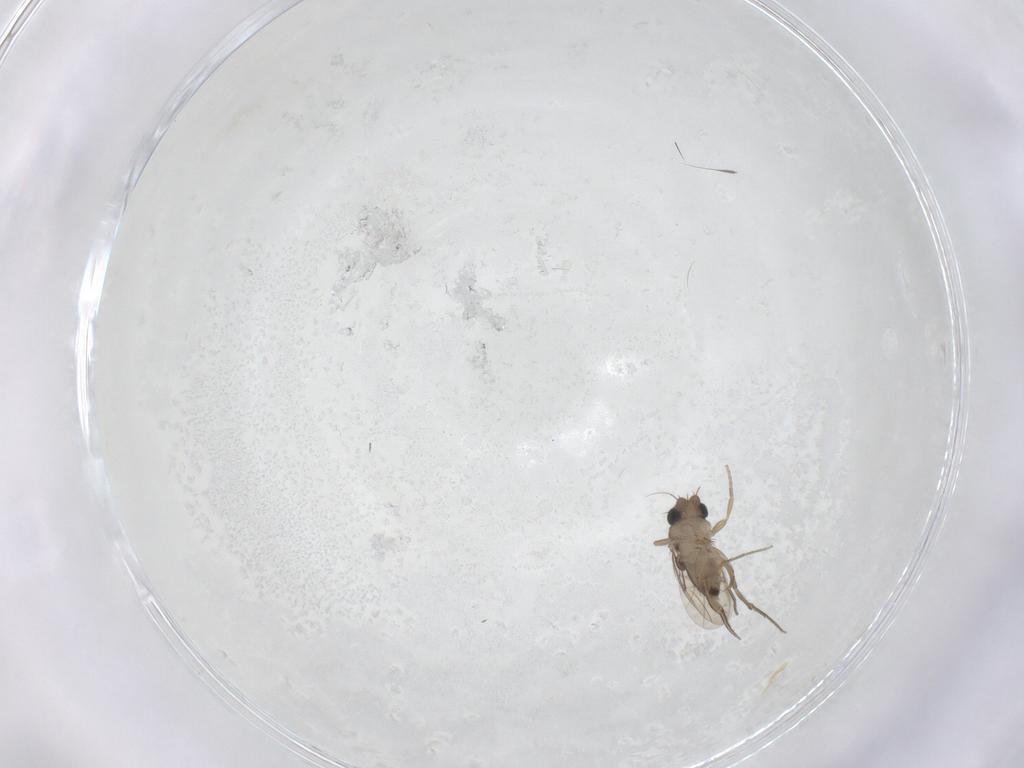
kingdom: Animalia
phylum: Arthropoda
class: Insecta
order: Diptera
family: Phoridae
